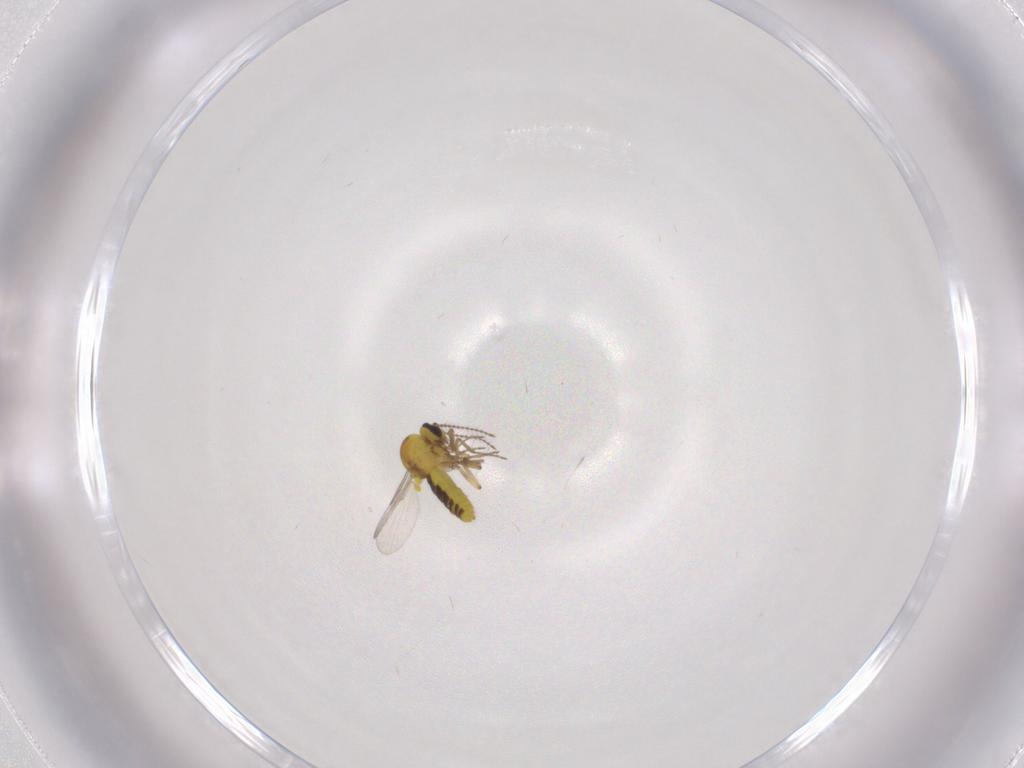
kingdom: Animalia
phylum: Arthropoda
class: Insecta
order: Diptera
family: Ceratopogonidae
